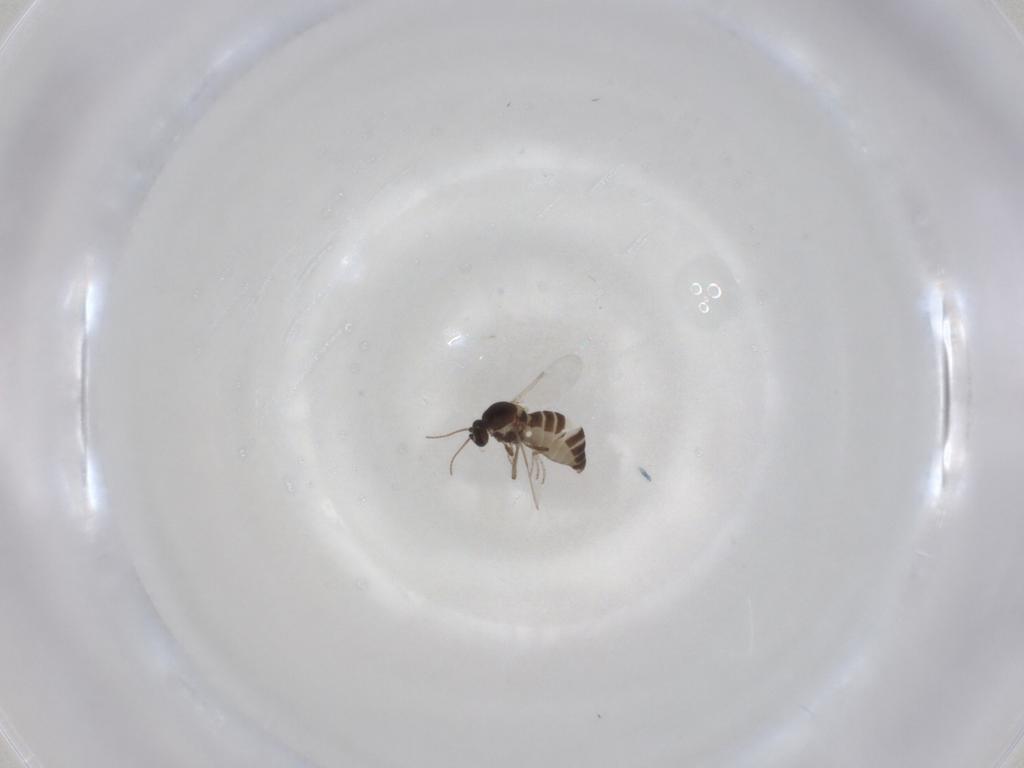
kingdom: Animalia
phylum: Arthropoda
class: Insecta
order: Diptera
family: Ceratopogonidae
